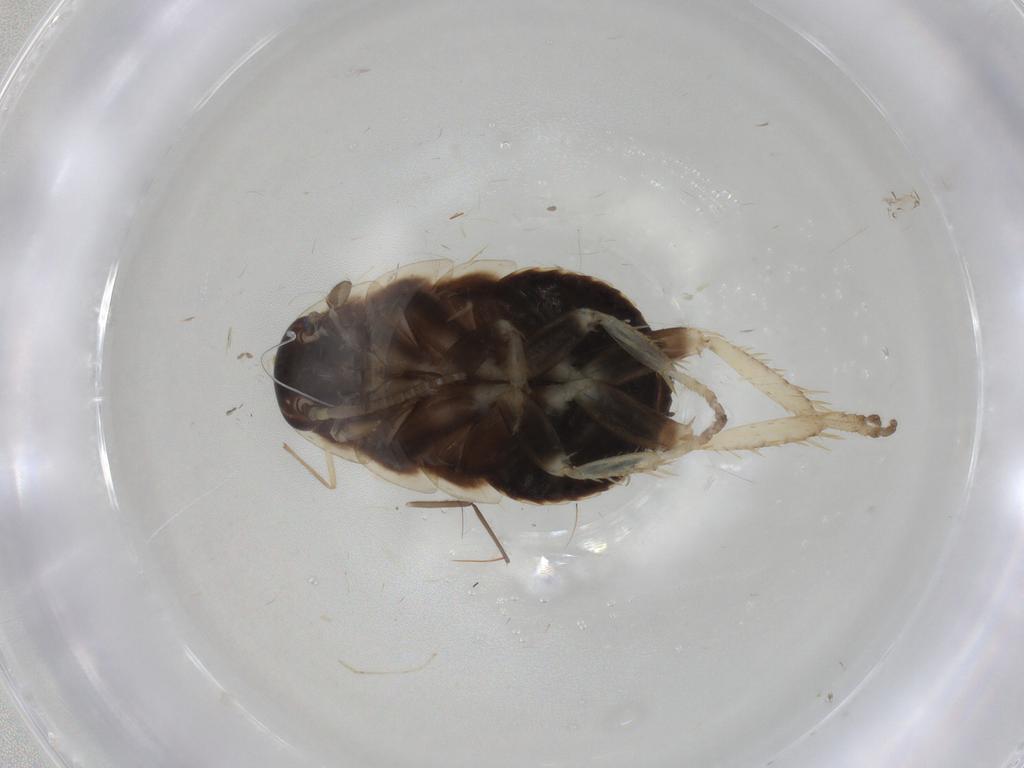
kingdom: Animalia
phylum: Arthropoda
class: Insecta
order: Blattodea
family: Ectobiidae
